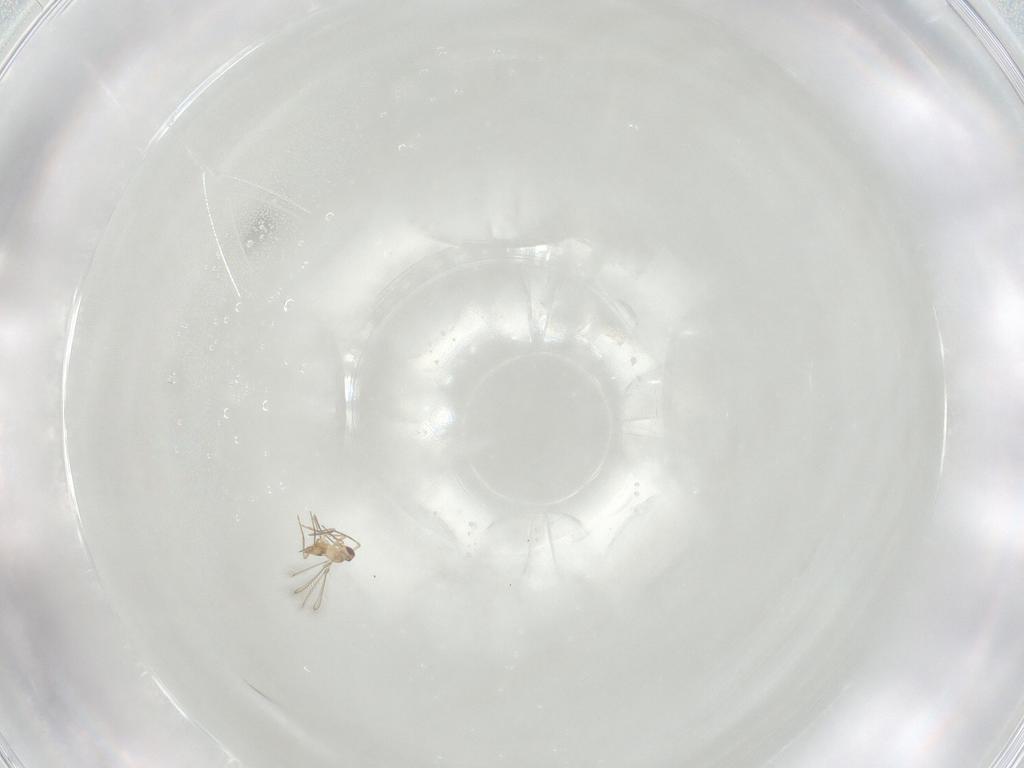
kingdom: Animalia
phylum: Arthropoda
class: Insecta
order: Hymenoptera
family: Mymaridae
